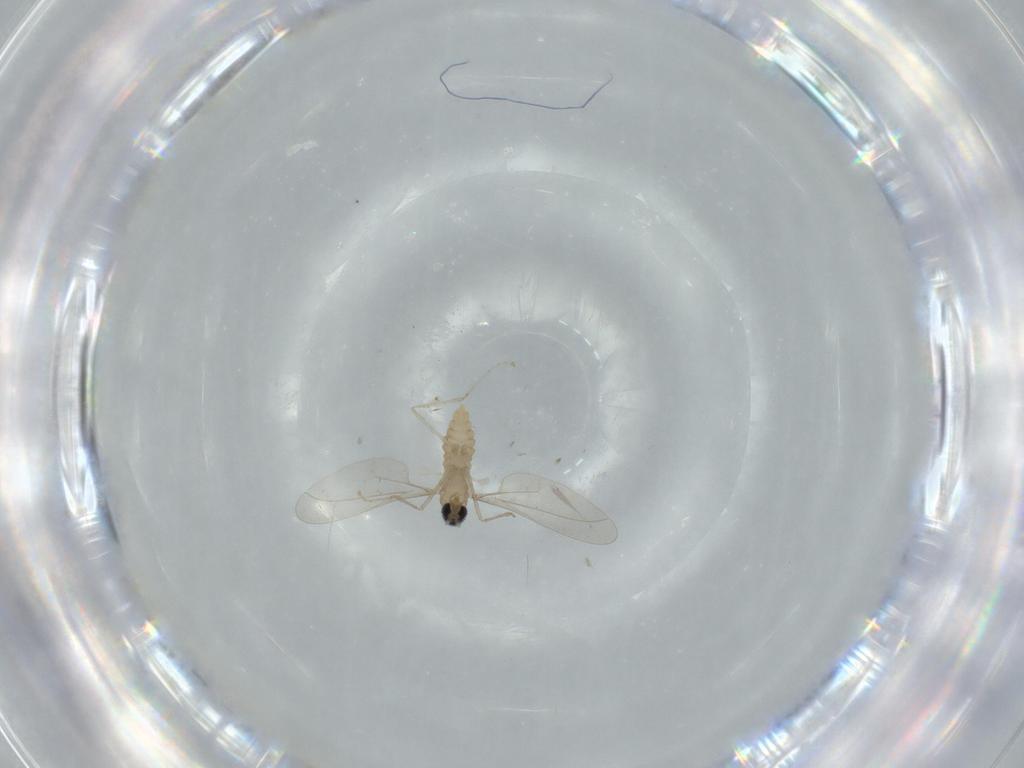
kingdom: Animalia
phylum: Arthropoda
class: Insecta
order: Diptera
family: Cecidomyiidae
